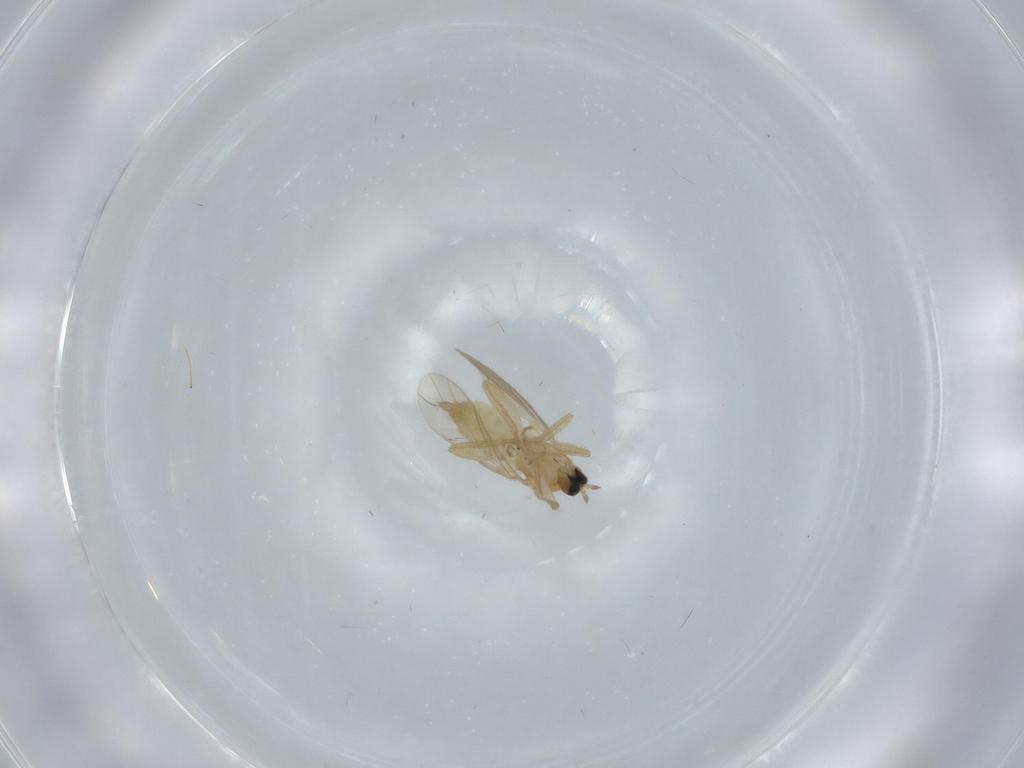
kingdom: Animalia
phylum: Arthropoda
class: Insecta
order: Diptera
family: Hybotidae
